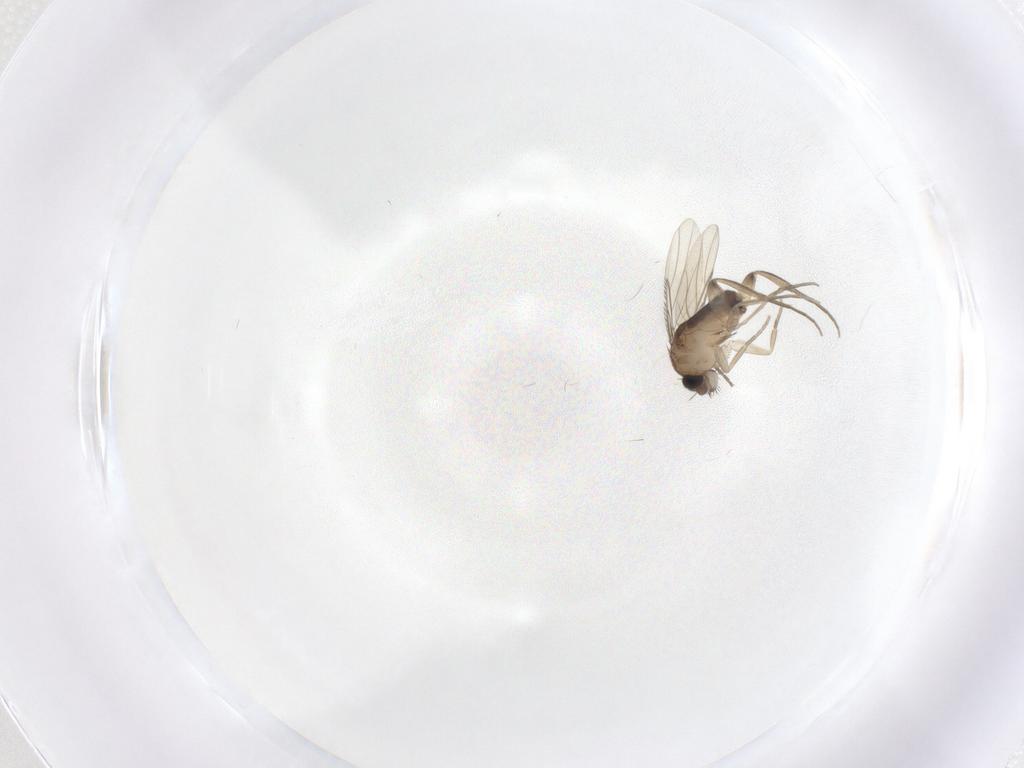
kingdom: Animalia
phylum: Arthropoda
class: Insecta
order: Diptera
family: Phoridae
